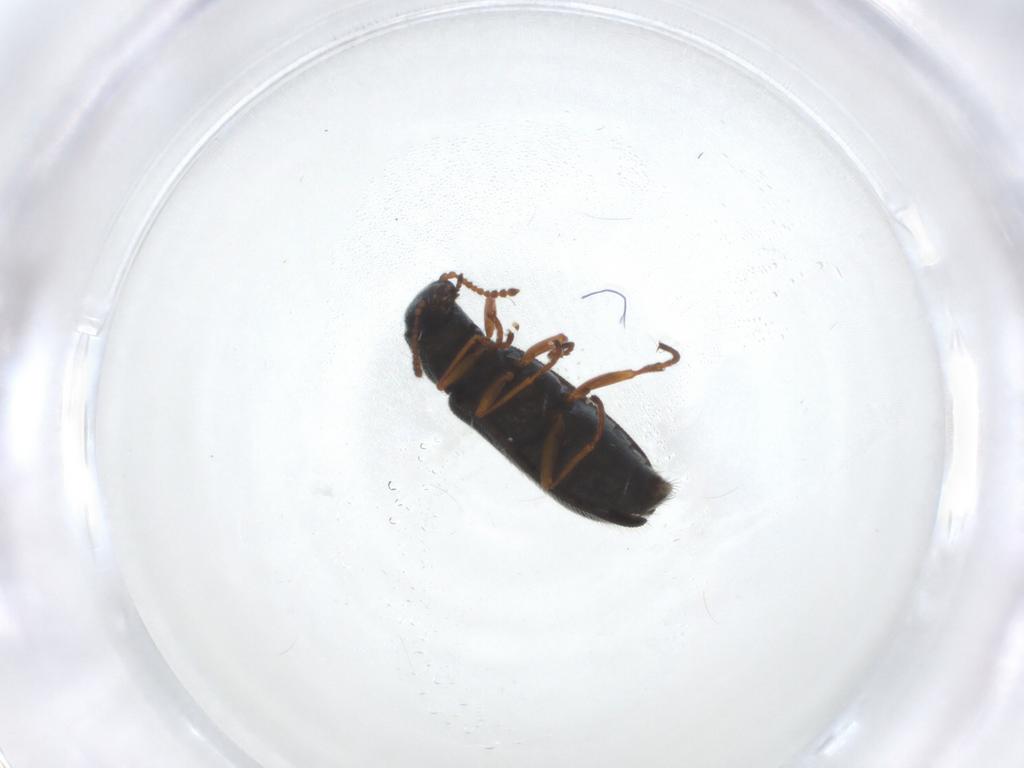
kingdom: Animalia
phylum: Arthropoda
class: Insecta
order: Coleoptera
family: Melyridae
